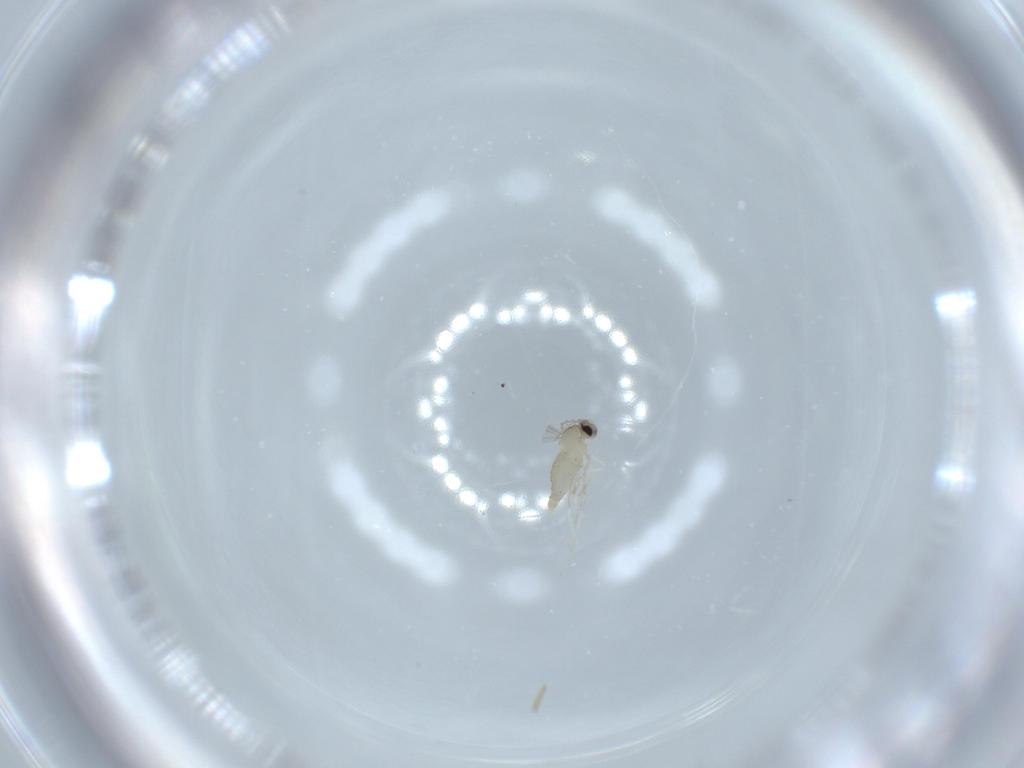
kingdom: Animalia
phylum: Arthropoda
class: Insecta
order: Diptera
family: Cecidomyiidae
